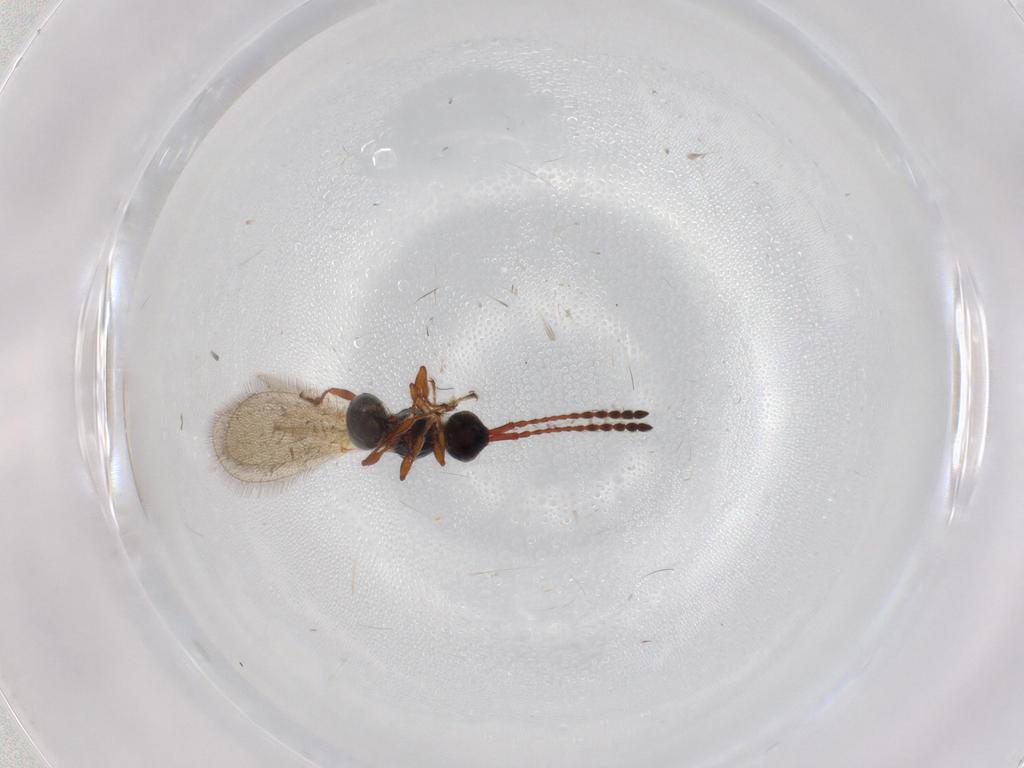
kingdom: Animalia
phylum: Arthropoda
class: Insecta
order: Hymenoptera
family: Diapriidae
